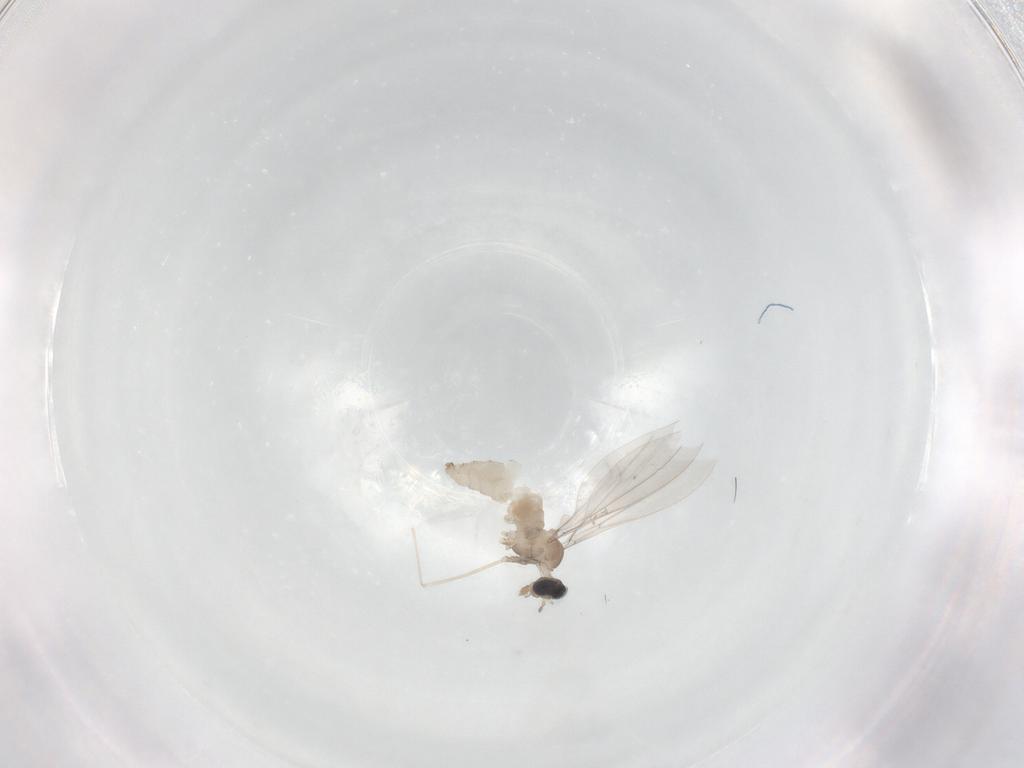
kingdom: Animalia
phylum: Arthropoda
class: Insecta
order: Diptera
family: Cecidomyiidae
